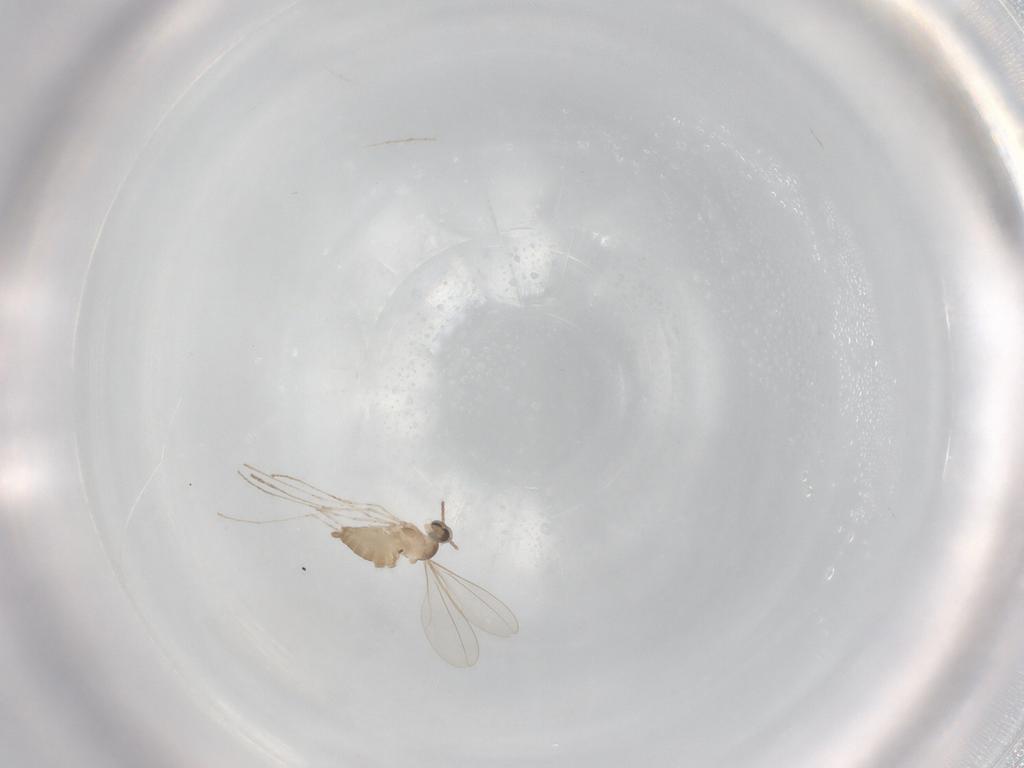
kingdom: Animalia
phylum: Arthropoda
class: Insecta
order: Diptera
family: Cecidomyiidae
